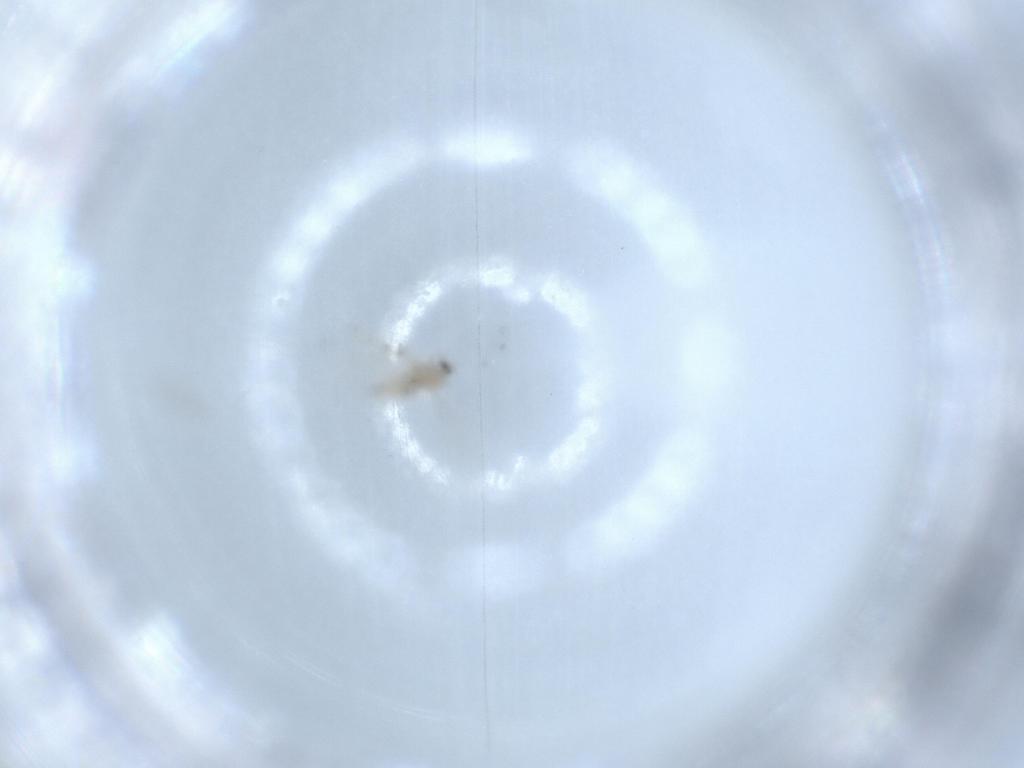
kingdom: Animalia
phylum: Arthropoda
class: Insecta
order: Diptera
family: Cecidomyiidae
